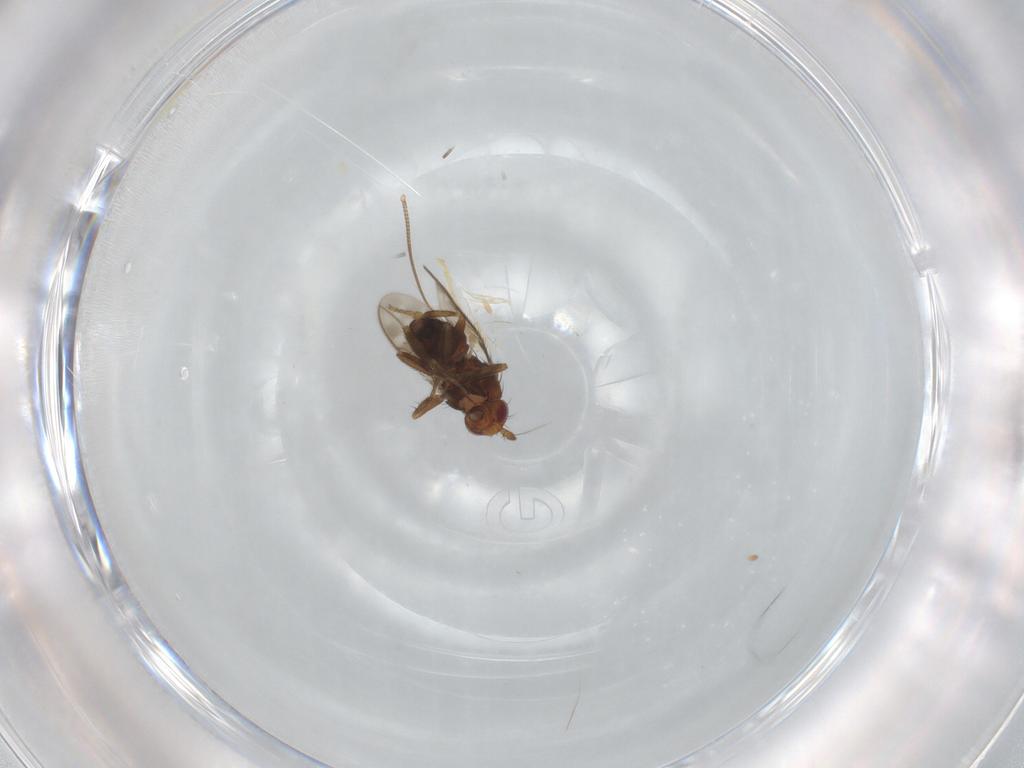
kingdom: Animalia
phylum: Arthropoda
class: Insecta
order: Diptera
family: Sphaeroceridae
